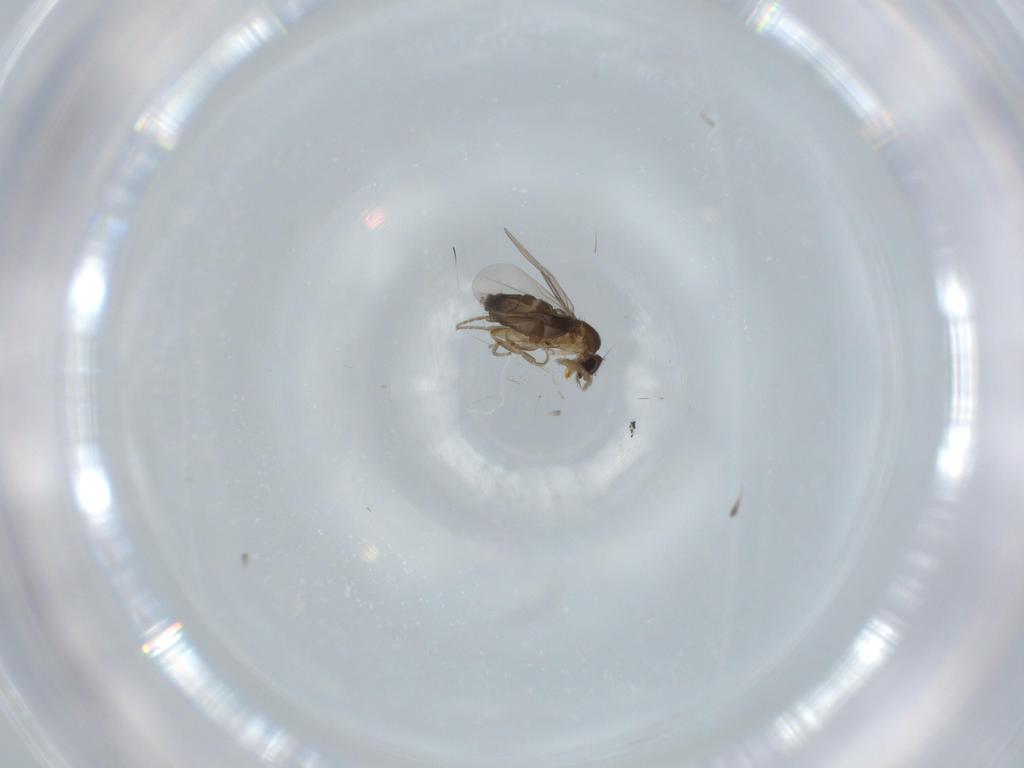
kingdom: Animalia
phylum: Arthropoda
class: Insecta
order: Diptera
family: Phoridae
